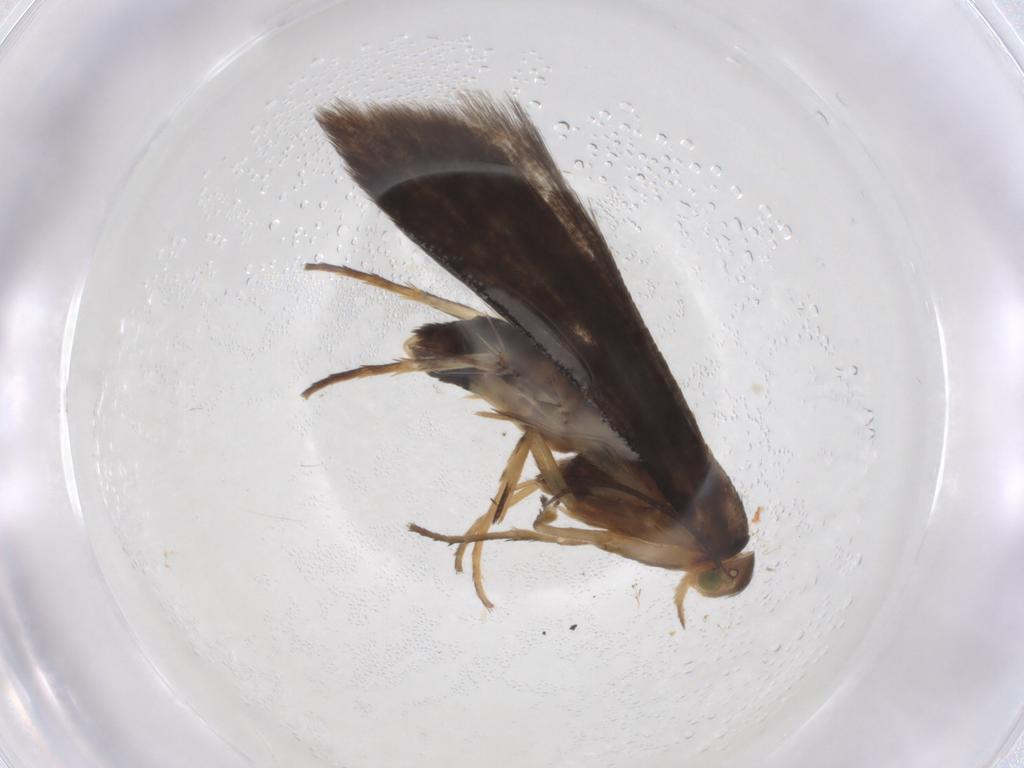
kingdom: Animalia
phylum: Arthropoda
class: Insecta
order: Lepidoptera
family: Oecophoridae
